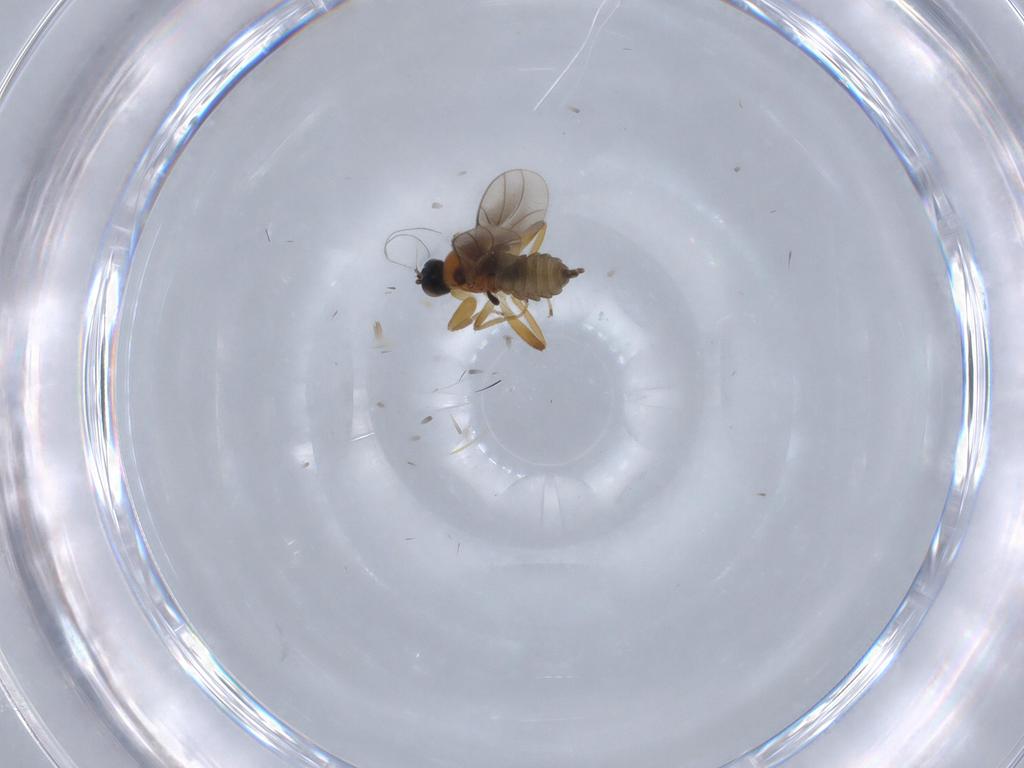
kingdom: Animalia
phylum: Arthropoda
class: Insecta
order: Diptera
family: Hybotidae
